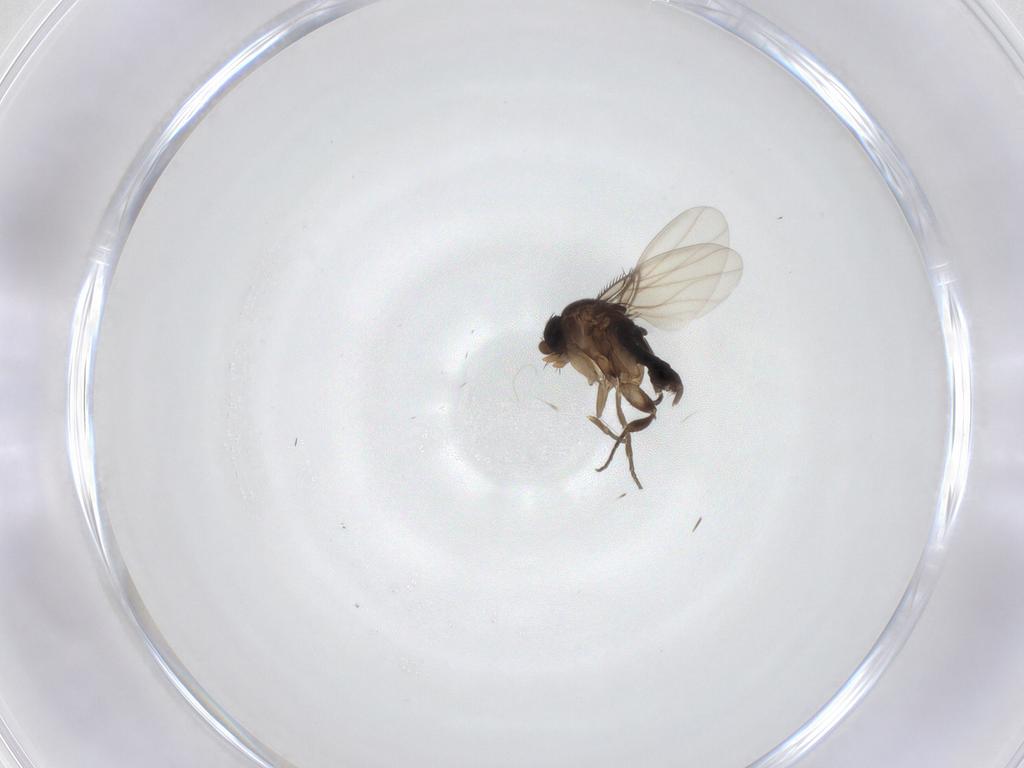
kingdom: Animalia
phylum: Arthropoda
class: Insecta
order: Diptera
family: Phoridae
